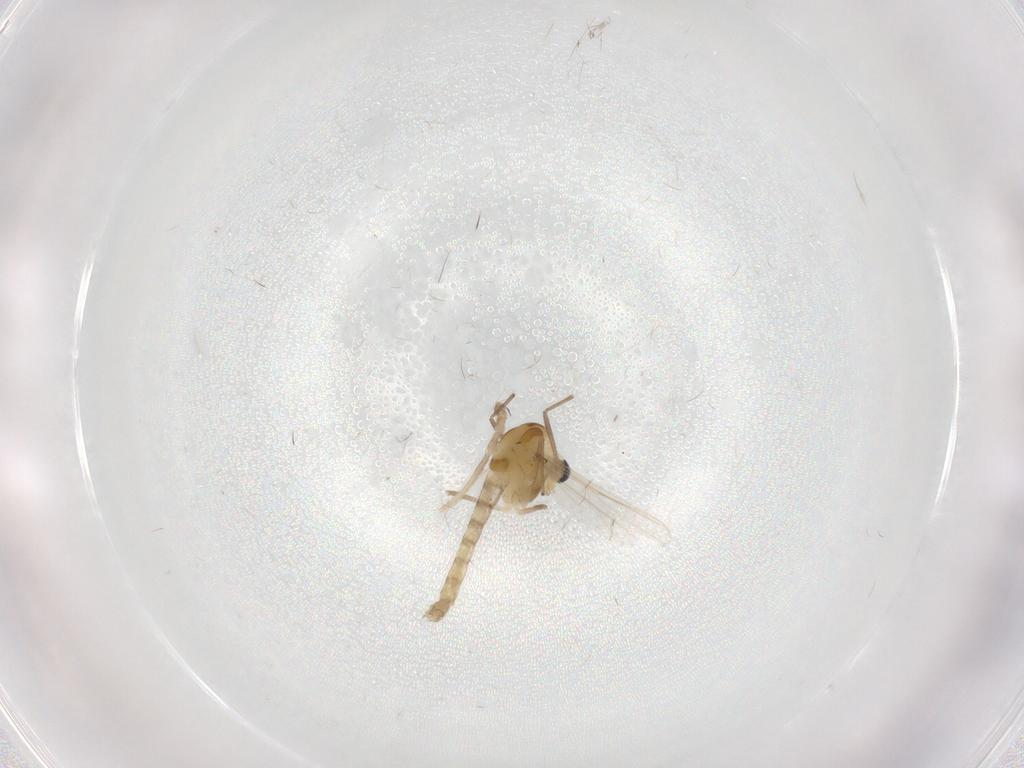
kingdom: Animalia
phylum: Arthropoda
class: Insecta
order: Diptera
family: Chironomidae
